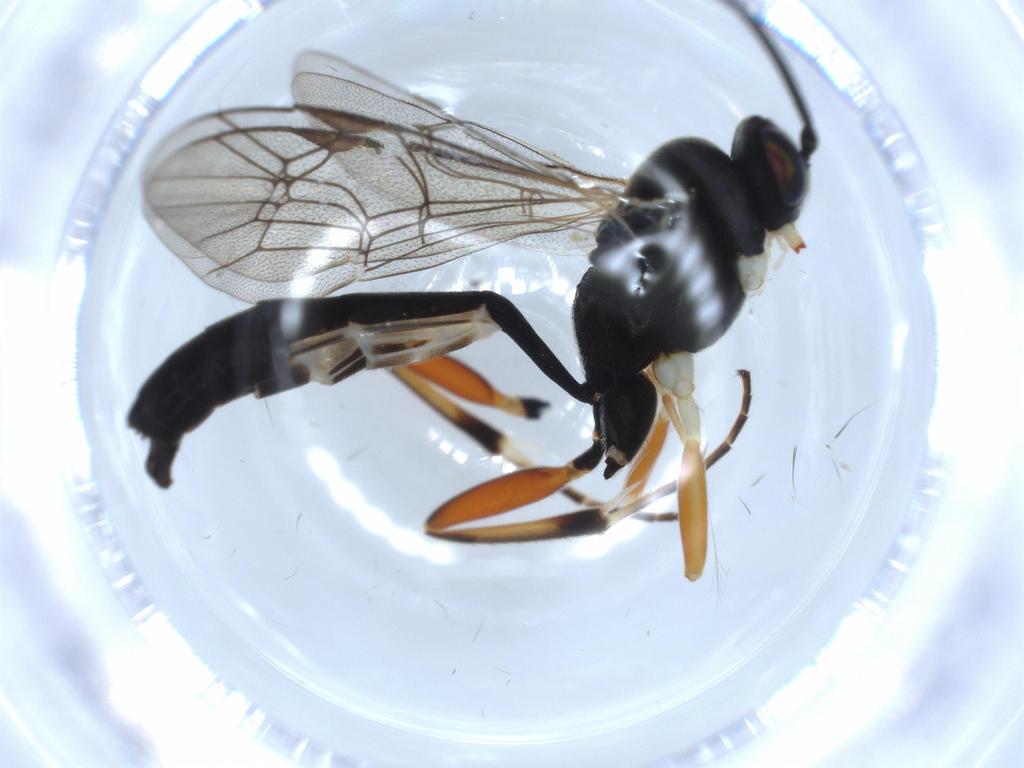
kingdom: Animalia
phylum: Arthropoda
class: Insecta
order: Hymenoptera
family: Ichneumonidae
